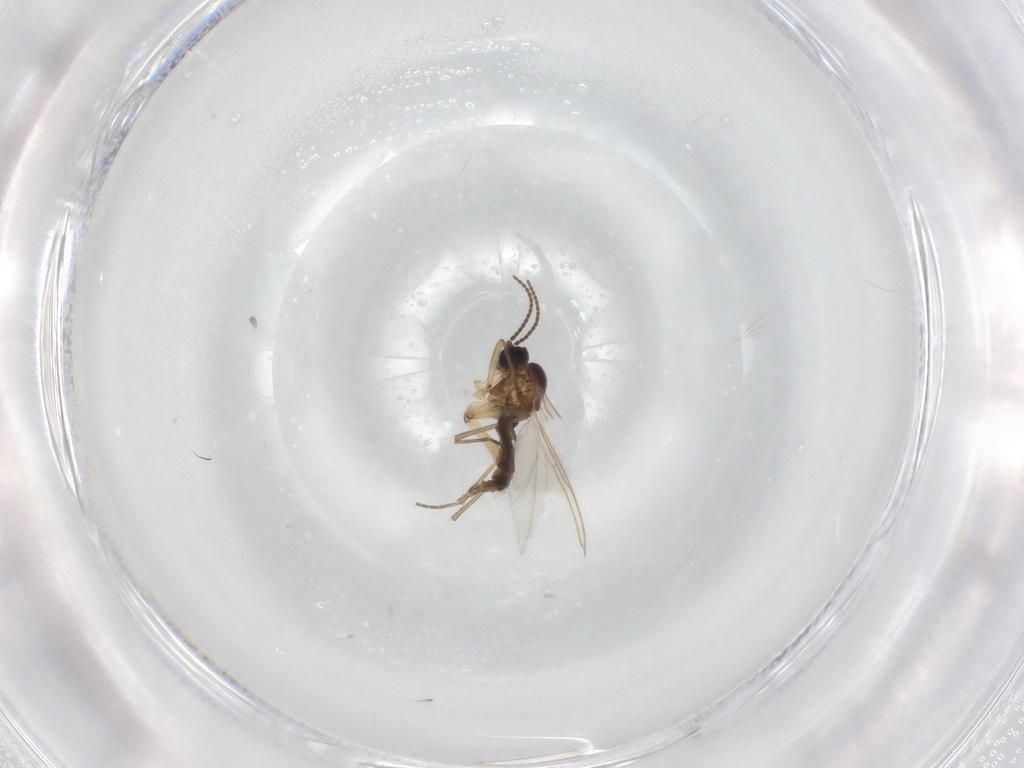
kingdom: Animalia
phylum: Arthropoda
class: Insecta
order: Diptera
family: Sciaridae
